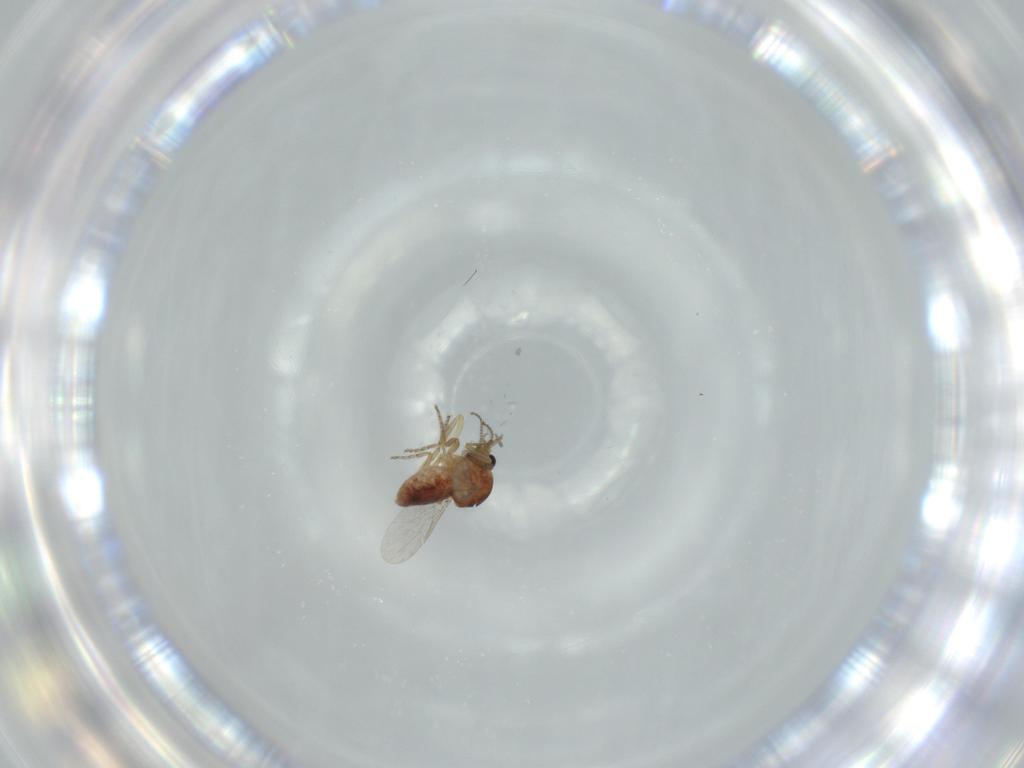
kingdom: Animalia
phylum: Arthropoda
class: Insecta
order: Diptera
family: Ceratopogonidae
